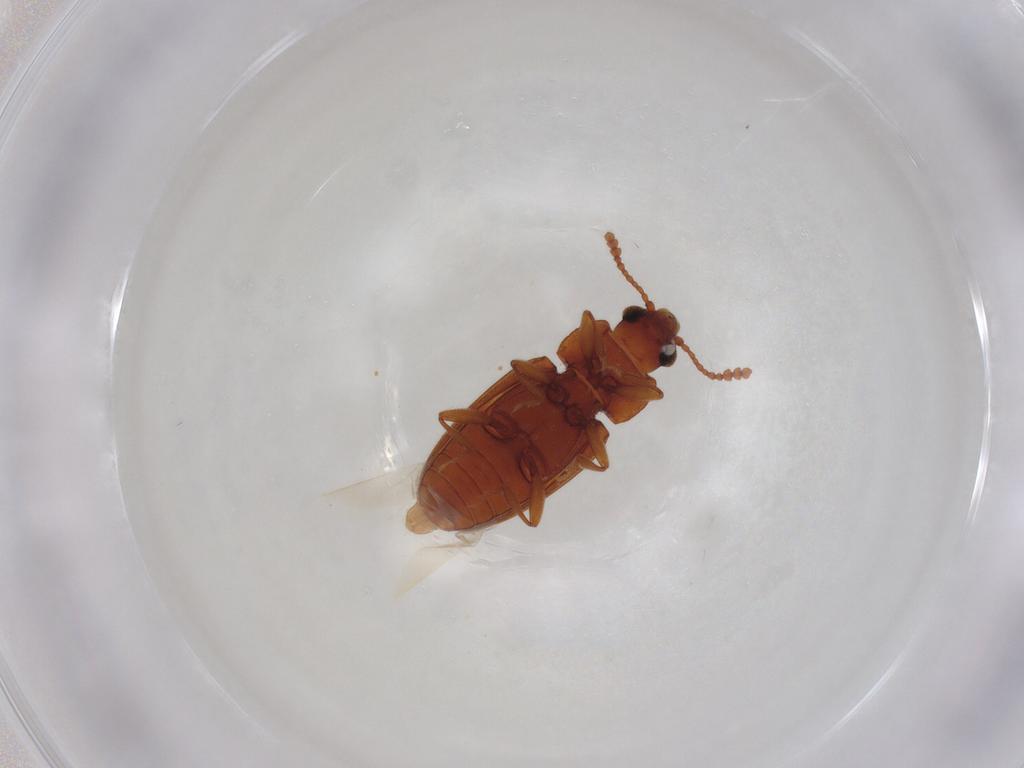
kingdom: Animalia
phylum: Arthropoda
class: Insecta
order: Coleoptera
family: Erotylidae
